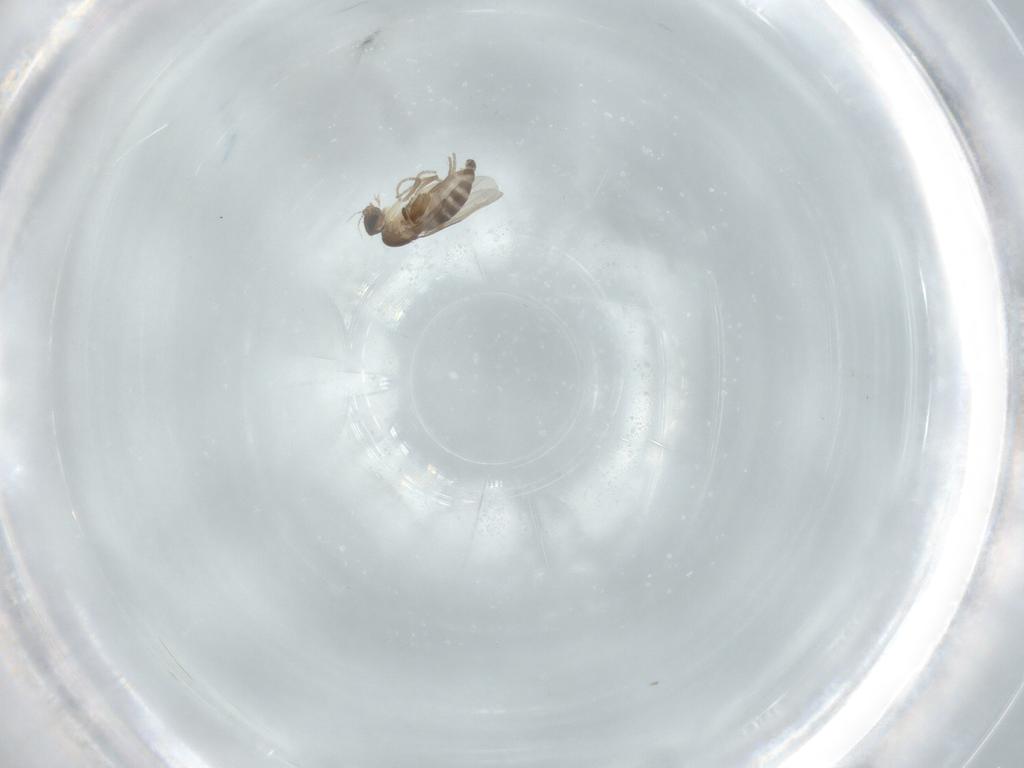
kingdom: Animalia
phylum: Arthropoda
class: Insecta
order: Diptera
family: Phoridae
